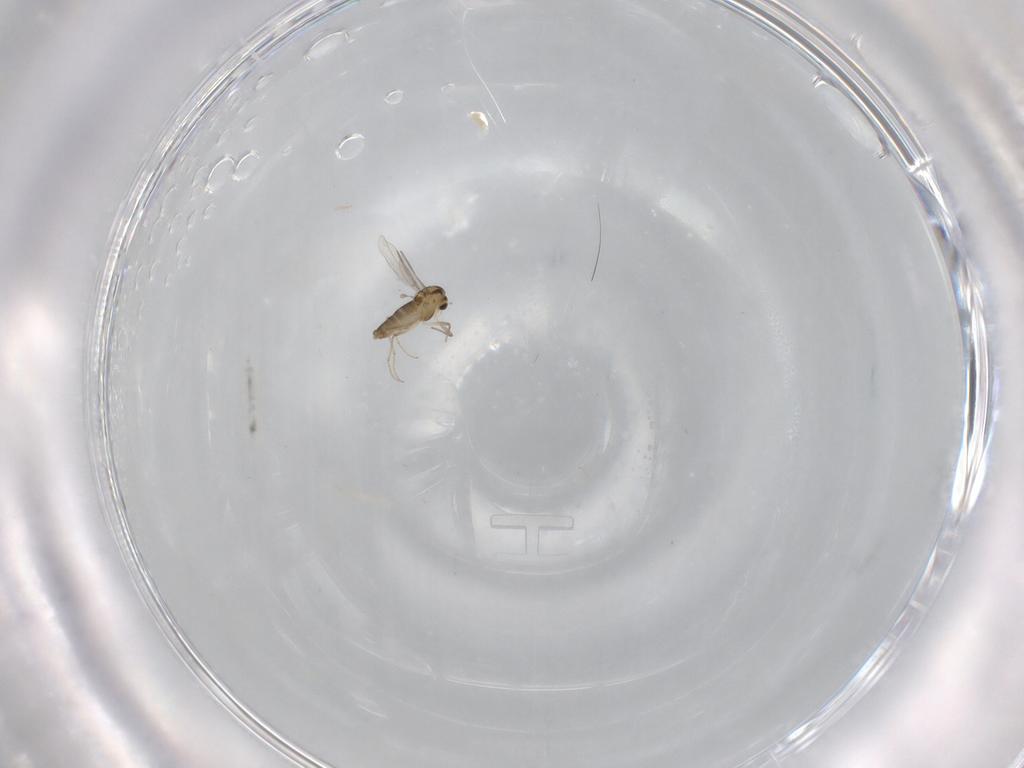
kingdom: Animalia
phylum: Arthropoda
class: Insecta
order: Diptera
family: Chironomidae
